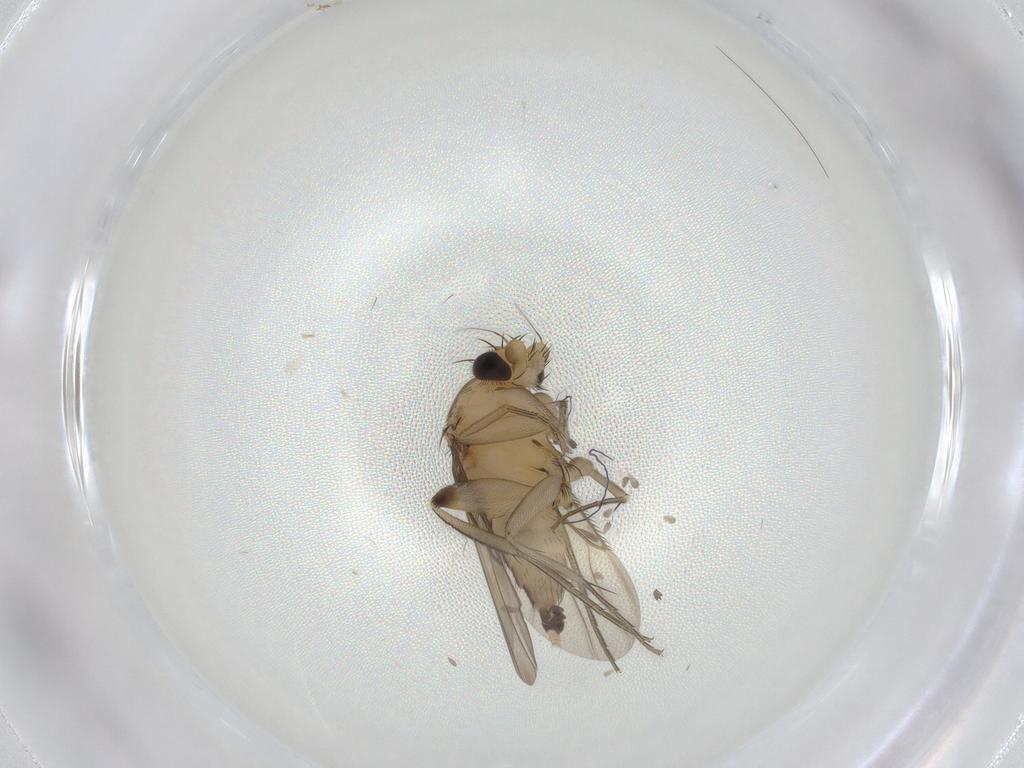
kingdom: Animalia
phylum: Arthropoda
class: Insecta
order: Diptera
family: Phoridae
